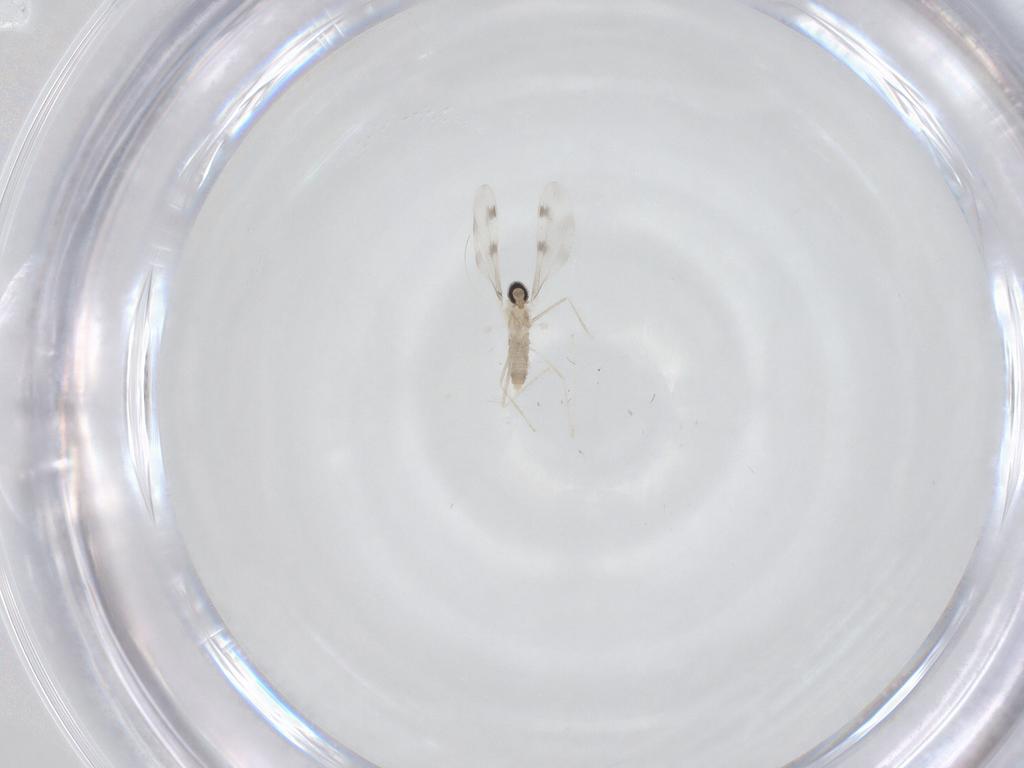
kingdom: Animalia
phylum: Arthropoda
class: Insecta
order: Diptera
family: Cecidomyiidae
